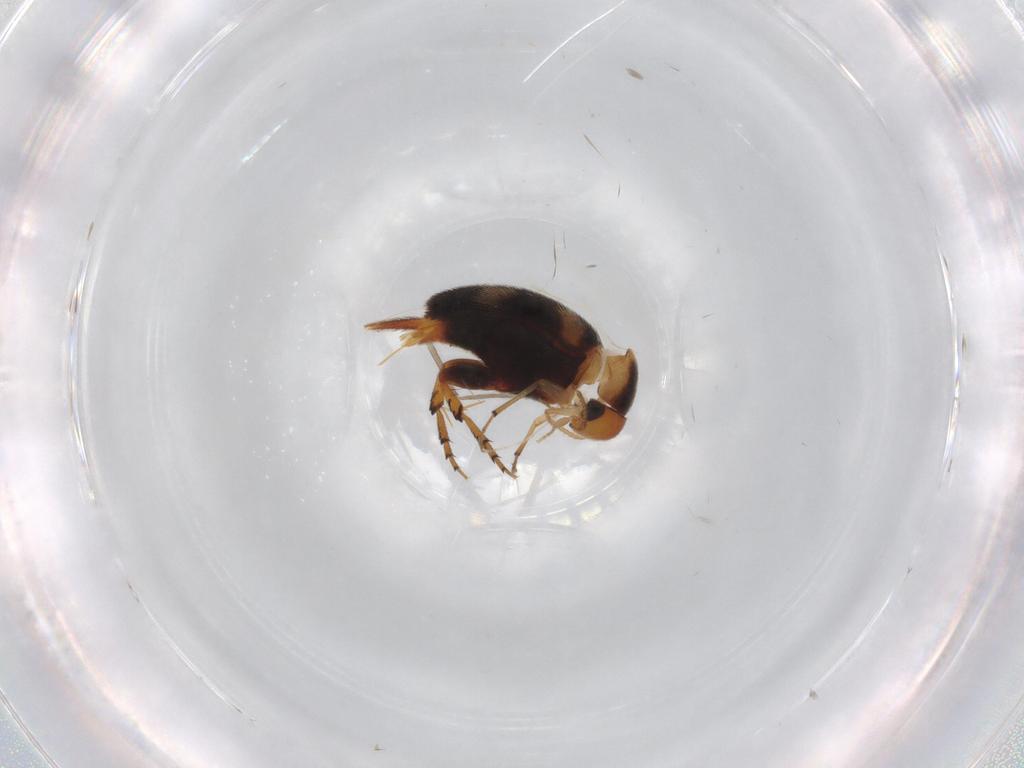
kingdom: Animalia
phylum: Arthropoda
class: Insecta
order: Coleoptera
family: Mordellidae
